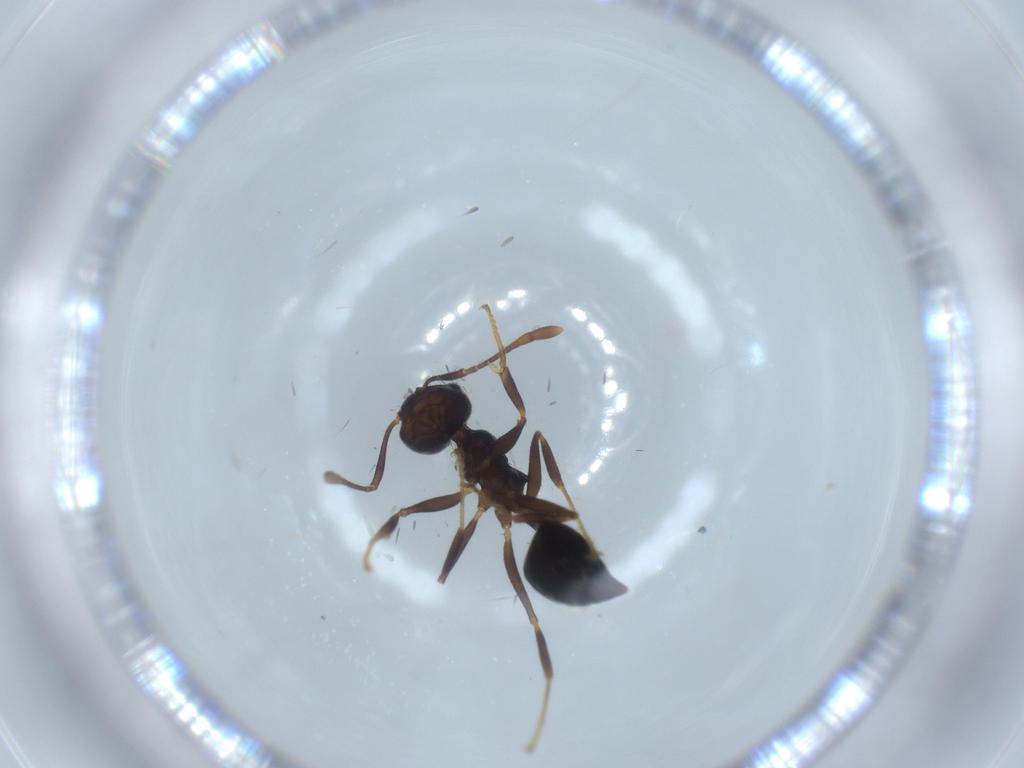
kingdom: Animalia
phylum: Arthropoda
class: Insecta
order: Hymenoptera
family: Formicidae
